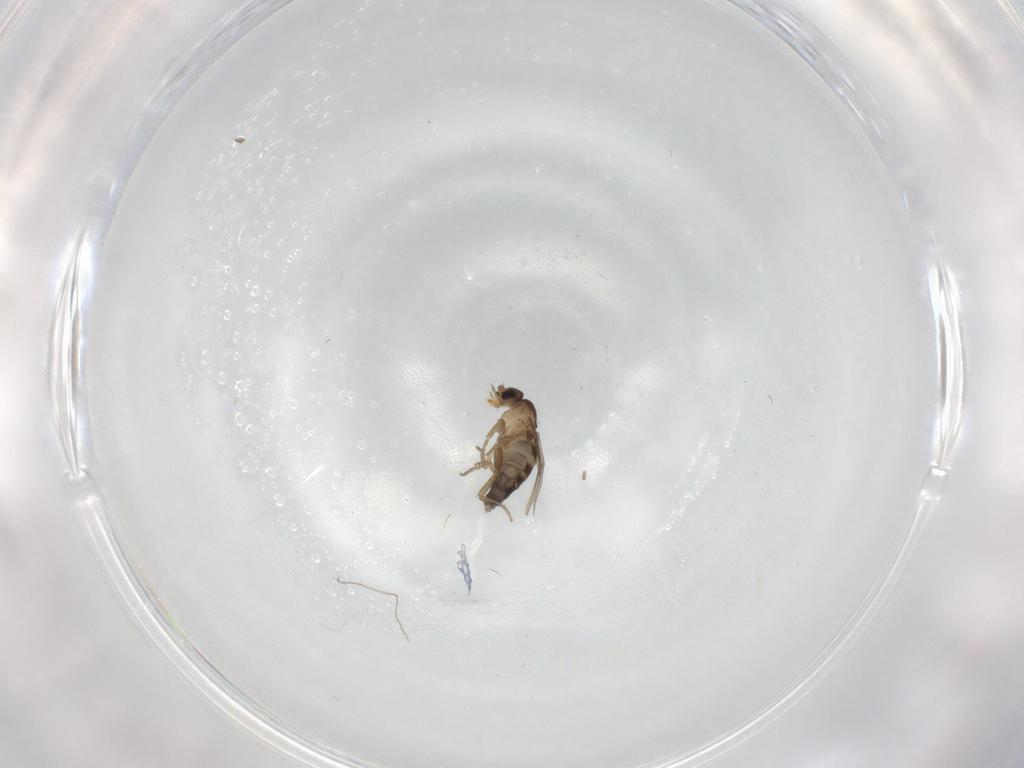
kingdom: Animalia
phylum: Arthropoda
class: Insecta
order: Diptera
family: Phoridae
